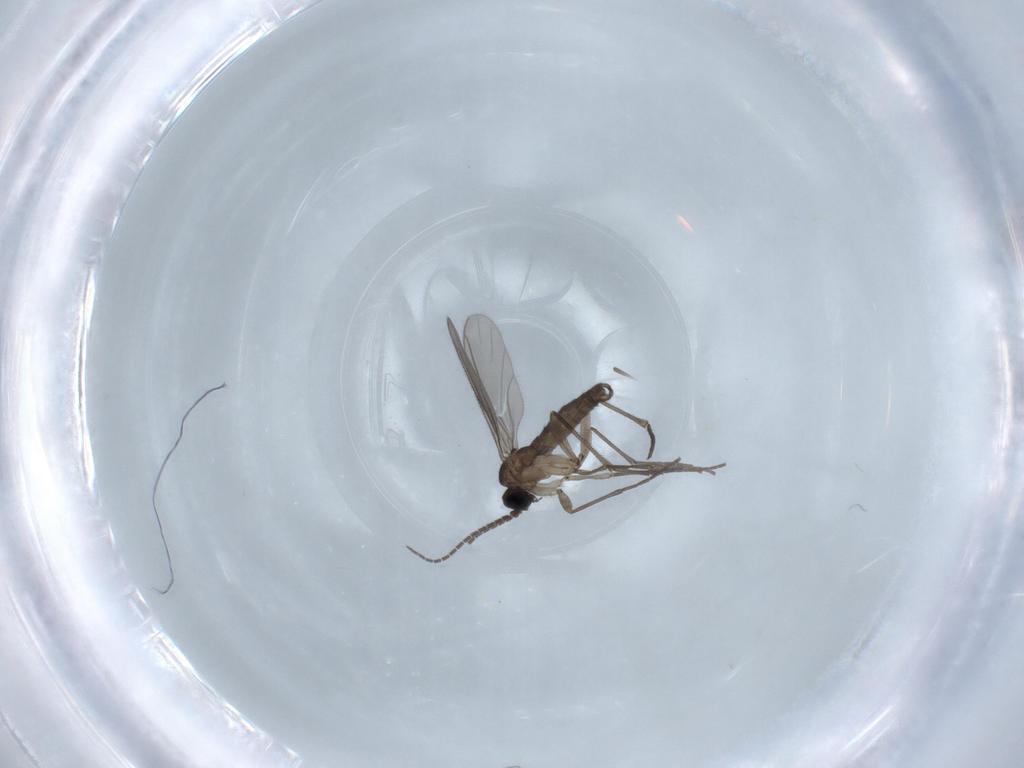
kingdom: Animalia
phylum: Arthropoda
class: Insecta
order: Diptera
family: Sciaridae
